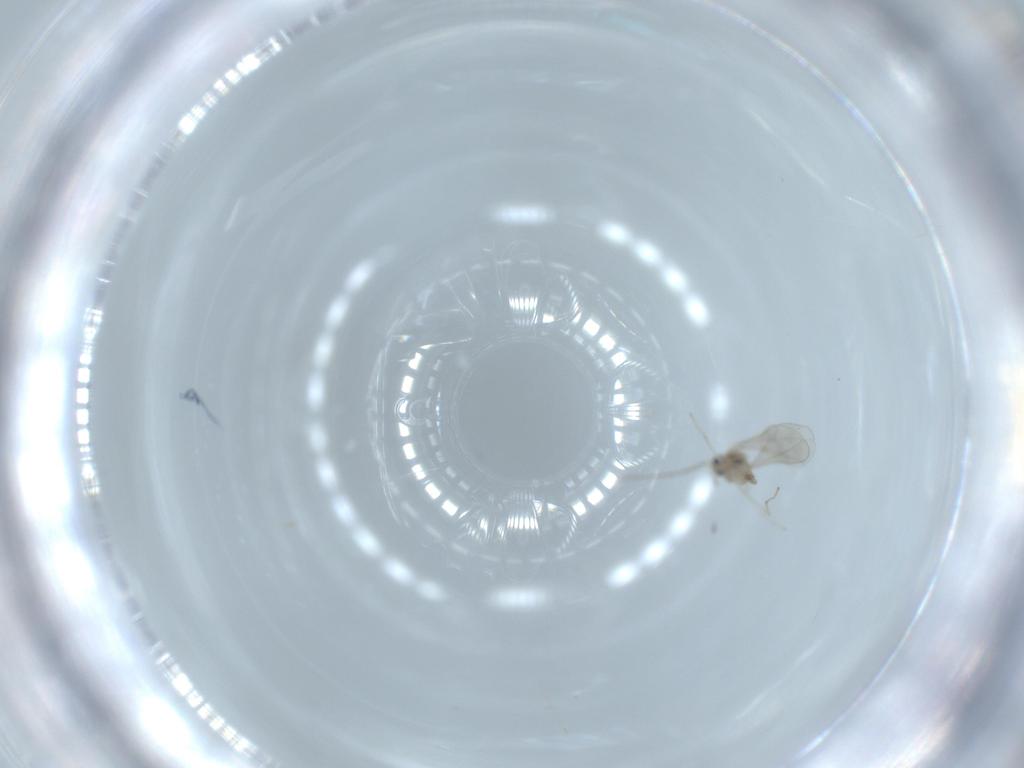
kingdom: Animalia
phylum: Arthropoda
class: Insecta
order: Diptera
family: Cecidomyiidae
